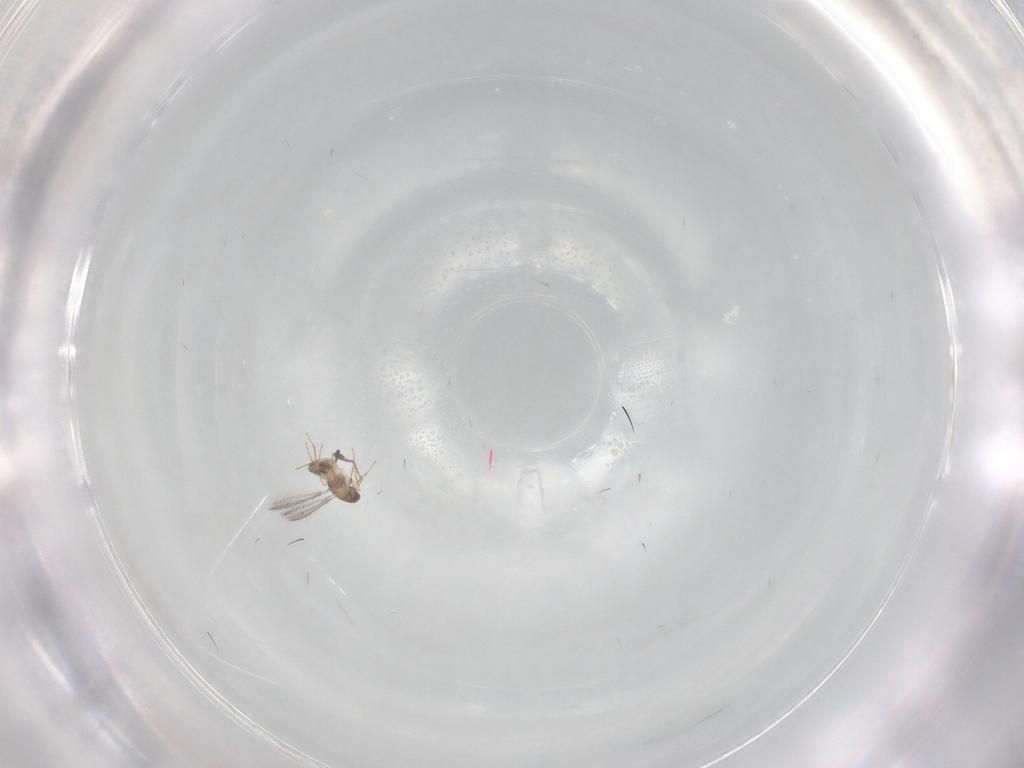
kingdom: Animalia
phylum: Arthropoda
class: Insecta
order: Hymenoptera
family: Mymaridae
